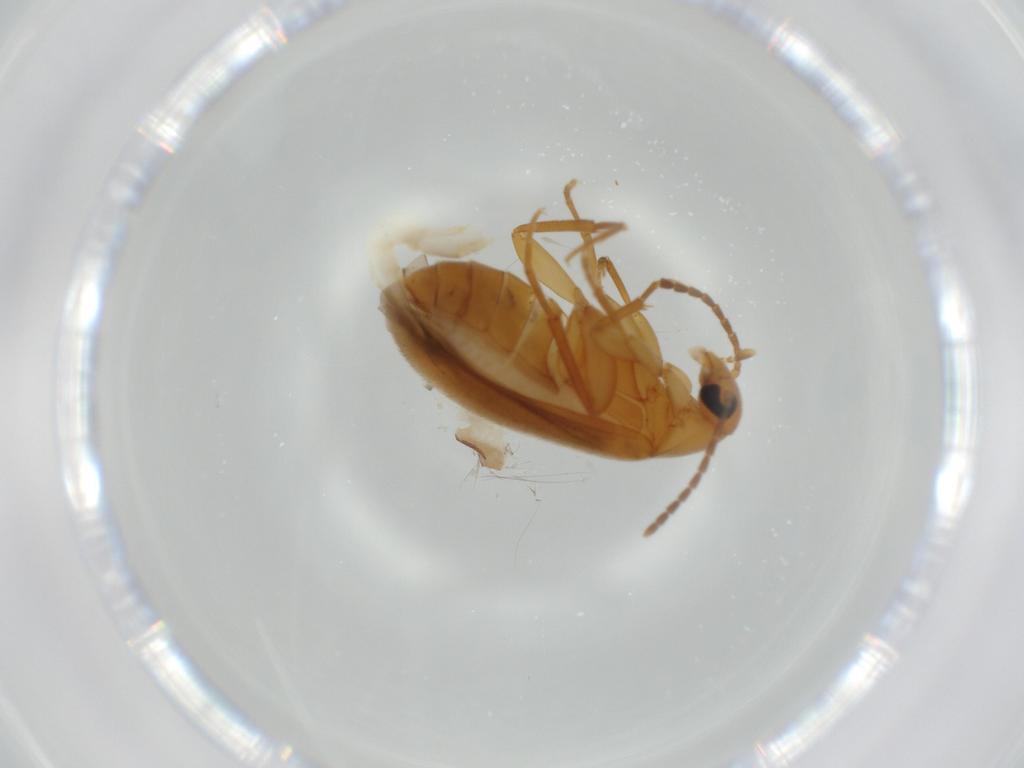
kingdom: Animalia
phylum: Arthropoda
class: Insecta
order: Coleoptera
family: Scraptiidae
